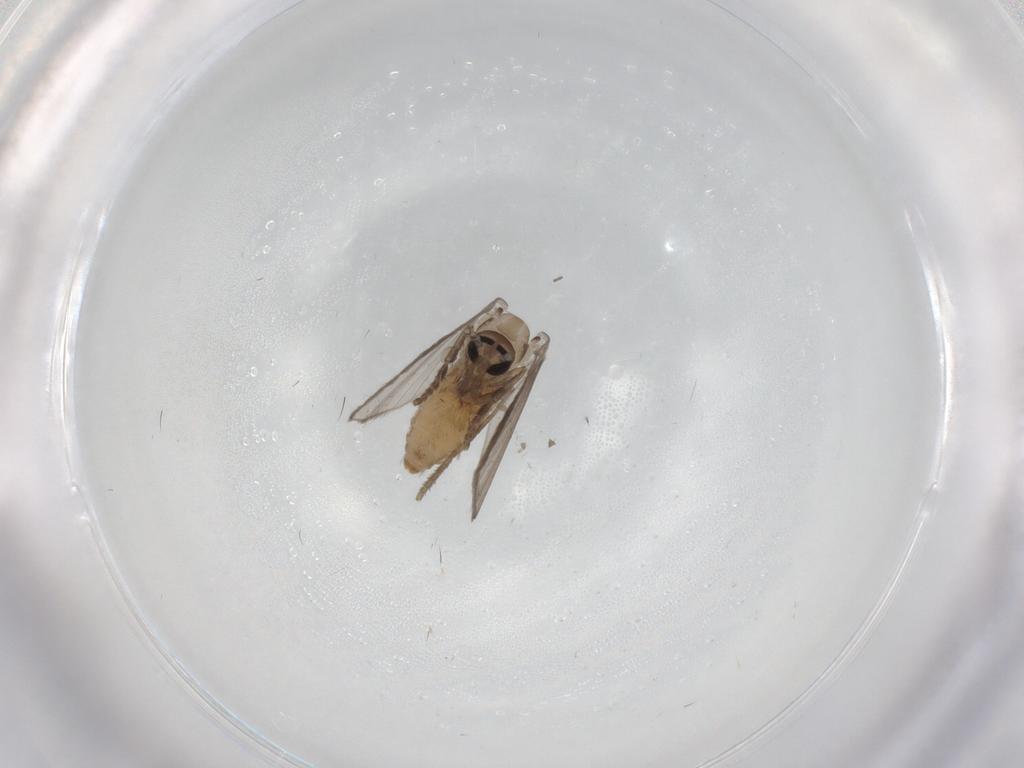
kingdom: Animalia
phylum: Arthropoda
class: Insecta
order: Diptera
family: Psychodidae
